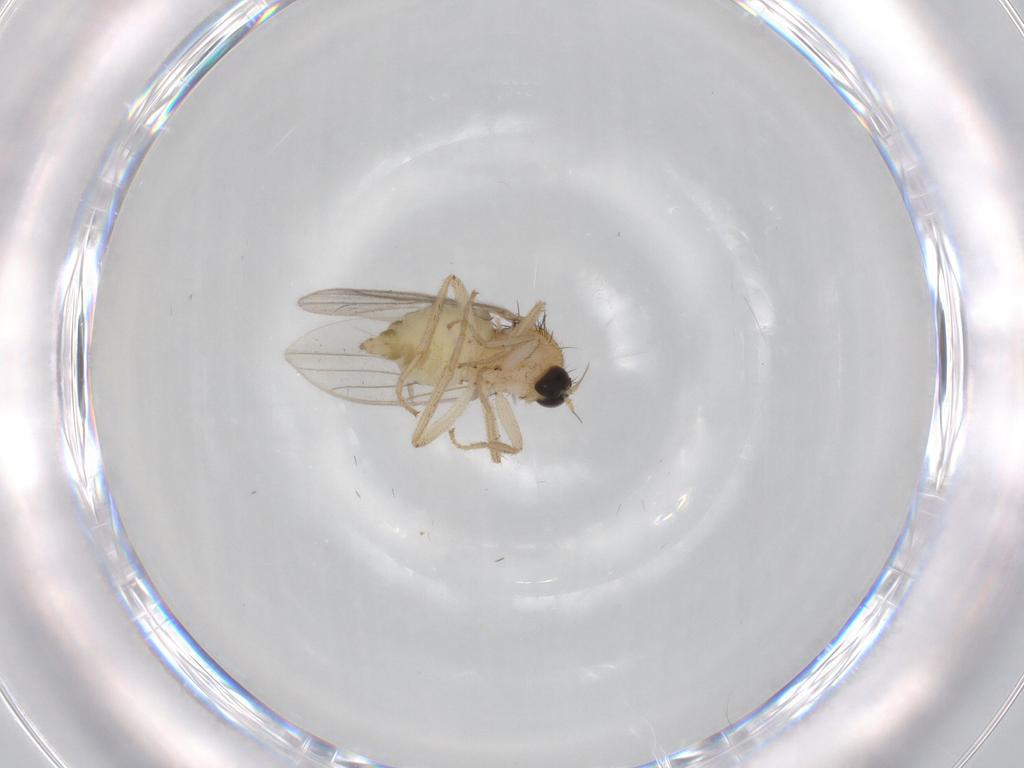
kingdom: Animalia
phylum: Arthropoda
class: Insecta
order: Diptera
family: Hybotidae
